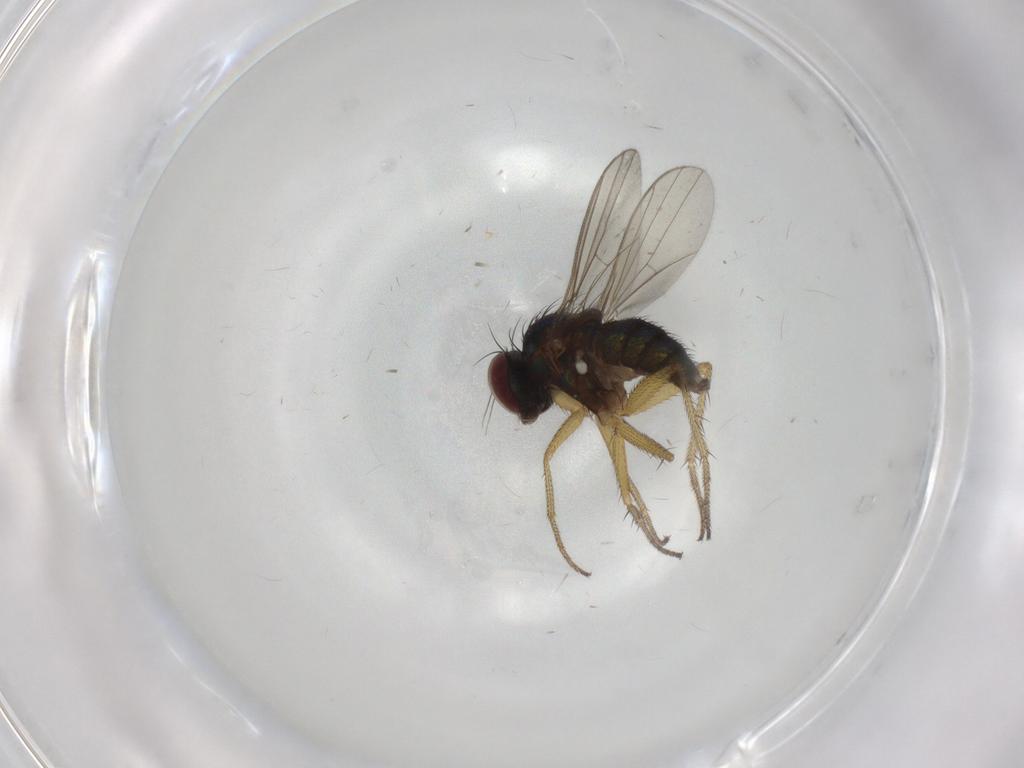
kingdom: Animalia
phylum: Arthropoda
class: Insecta
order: Diptera
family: Dolichopodidae
